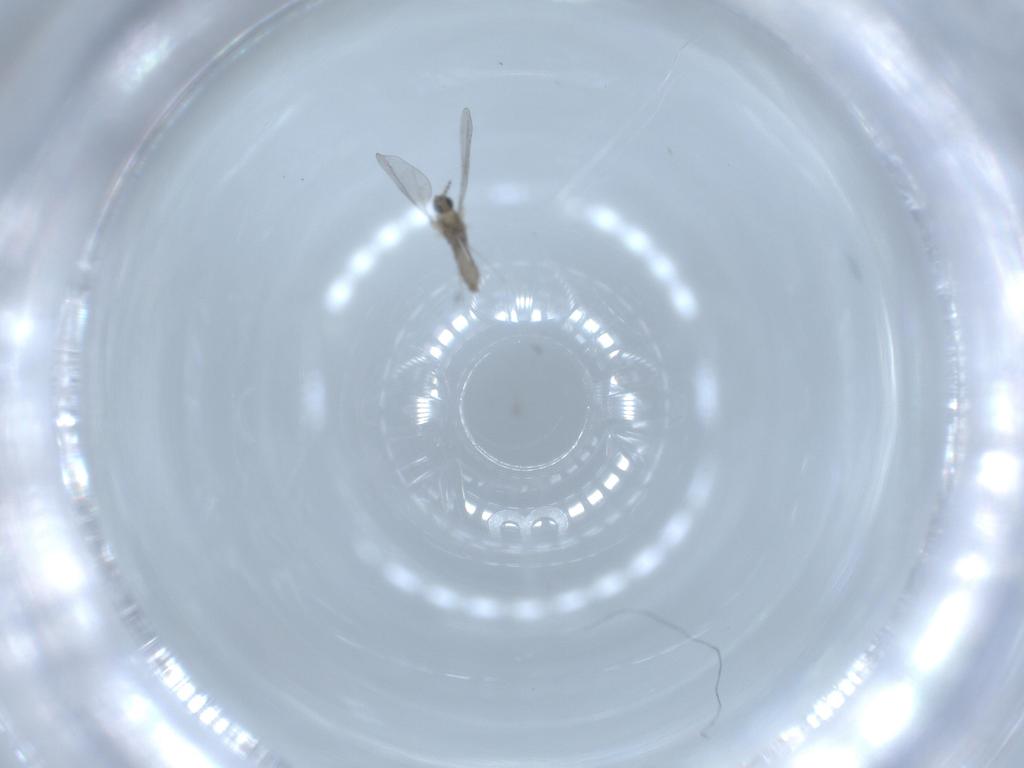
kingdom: Animalia
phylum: Arthropoda
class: Insecta
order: Diptera
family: Cecidomyiidae
